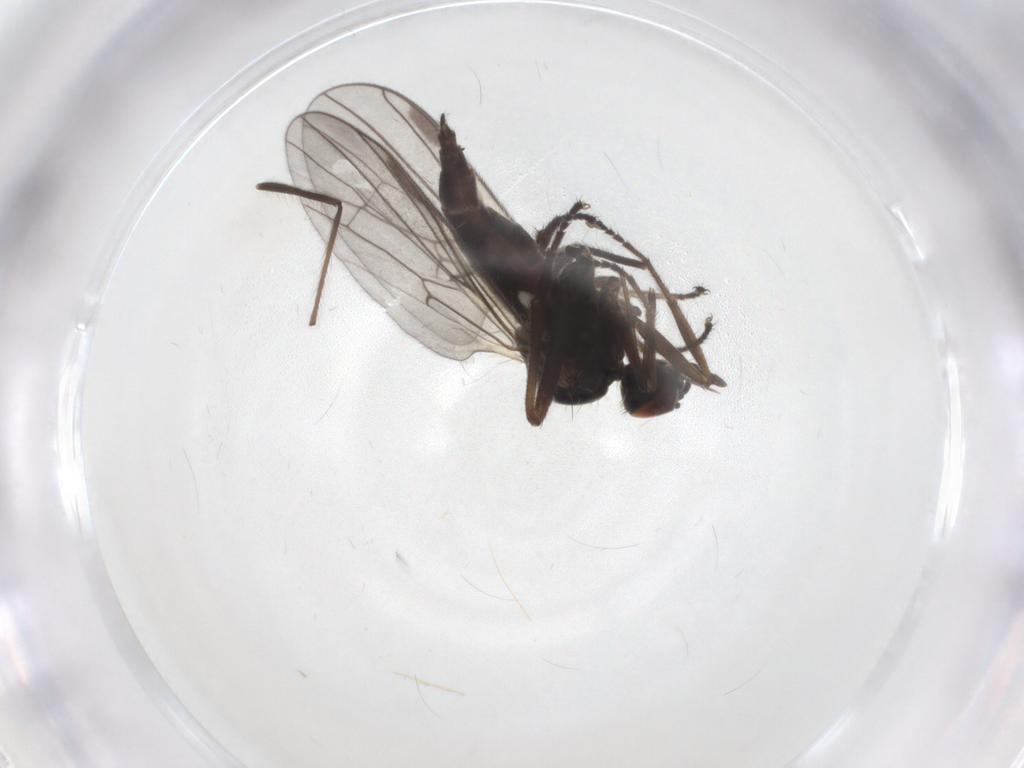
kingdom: Animalia
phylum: Arthropoda
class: Insecta
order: Diptera
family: Hybotidae
